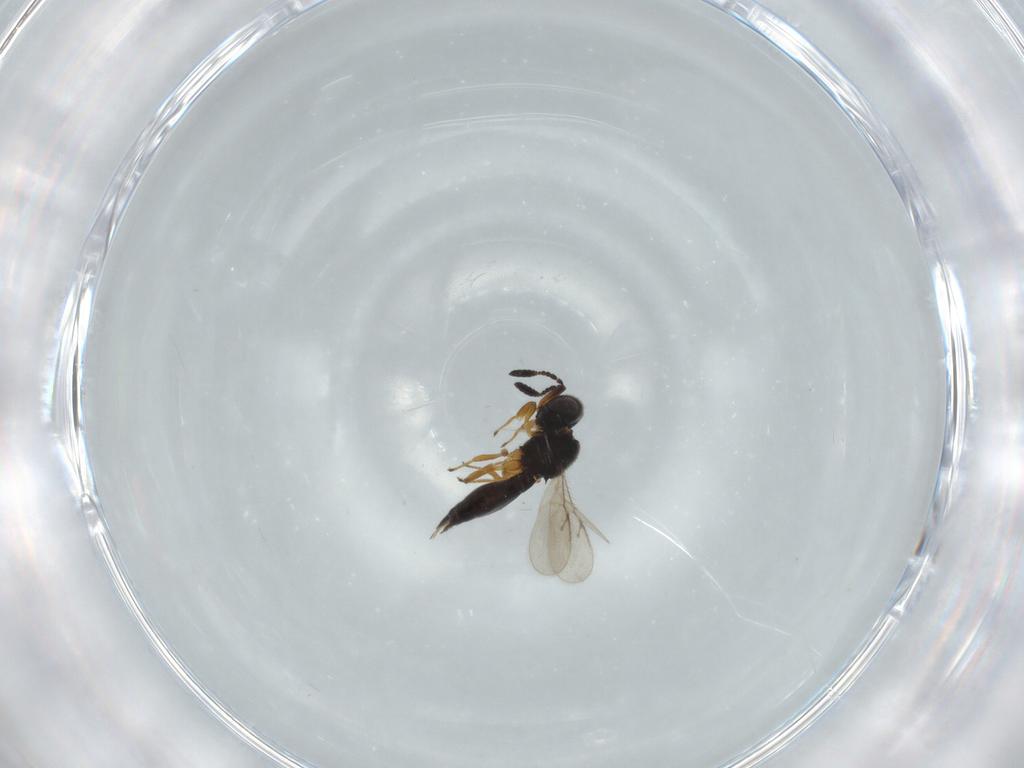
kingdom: Animalia
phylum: Arthropoda
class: Insecta
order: Hymenoptera
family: Scelionidae
